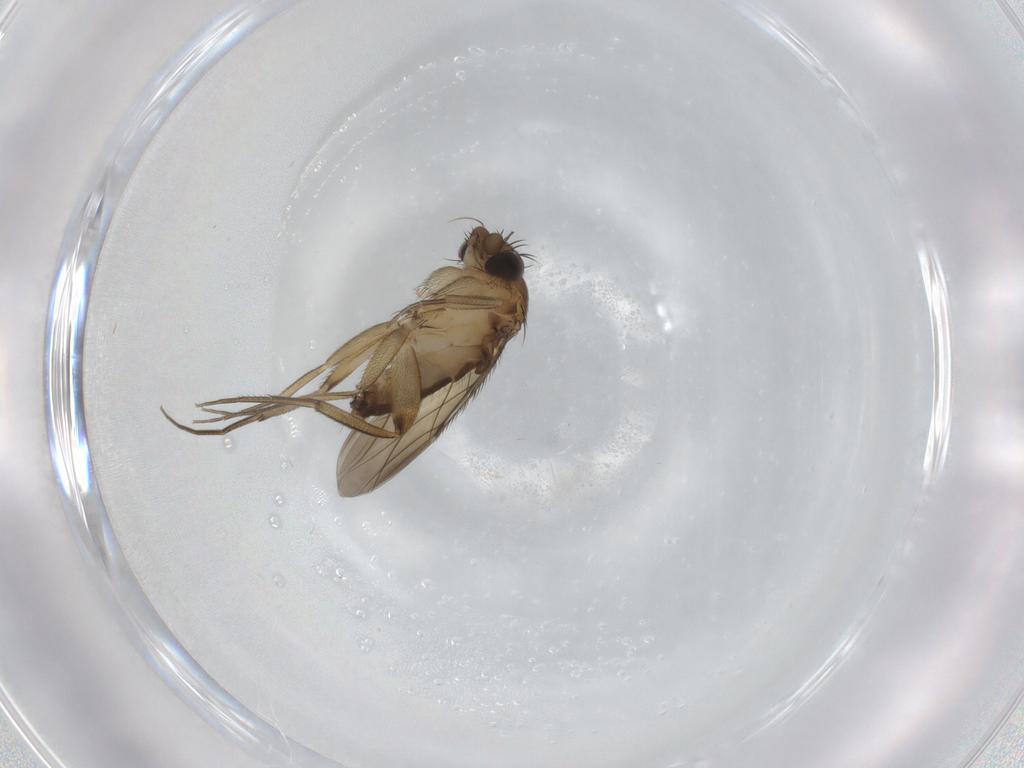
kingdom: Animalia
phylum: Arthropoda
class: Insecta
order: Diptera
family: Phoridae
